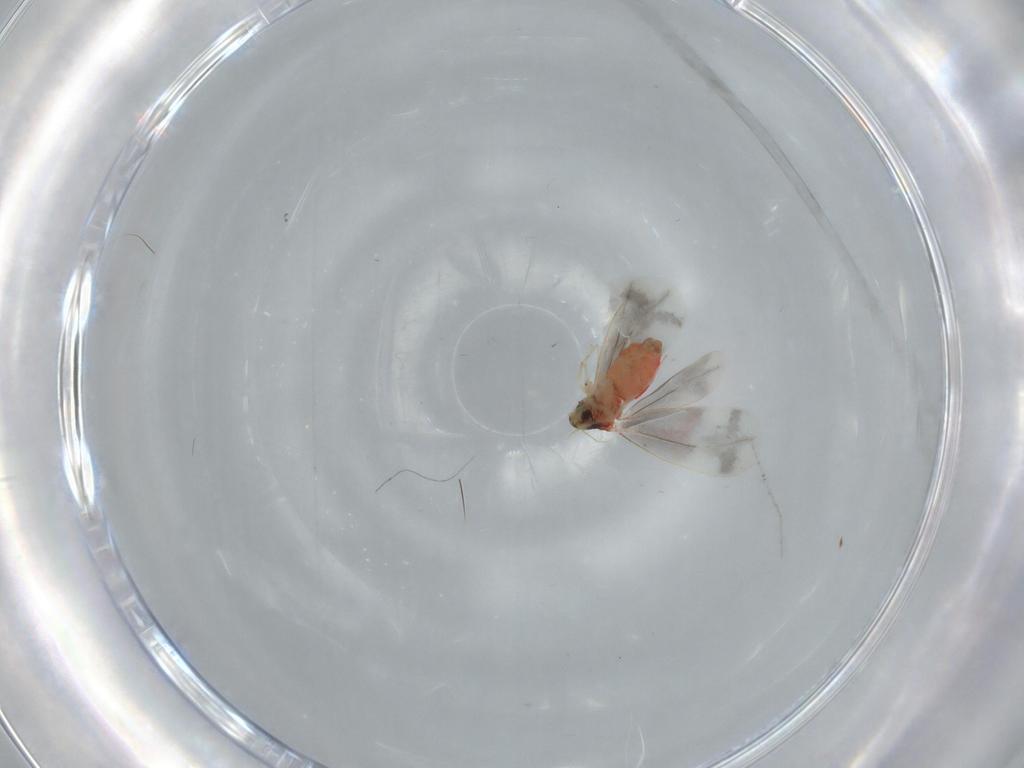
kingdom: Animalia
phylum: Arthropoda
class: Insecta
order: Hemiptera
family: Aleyrodidae
